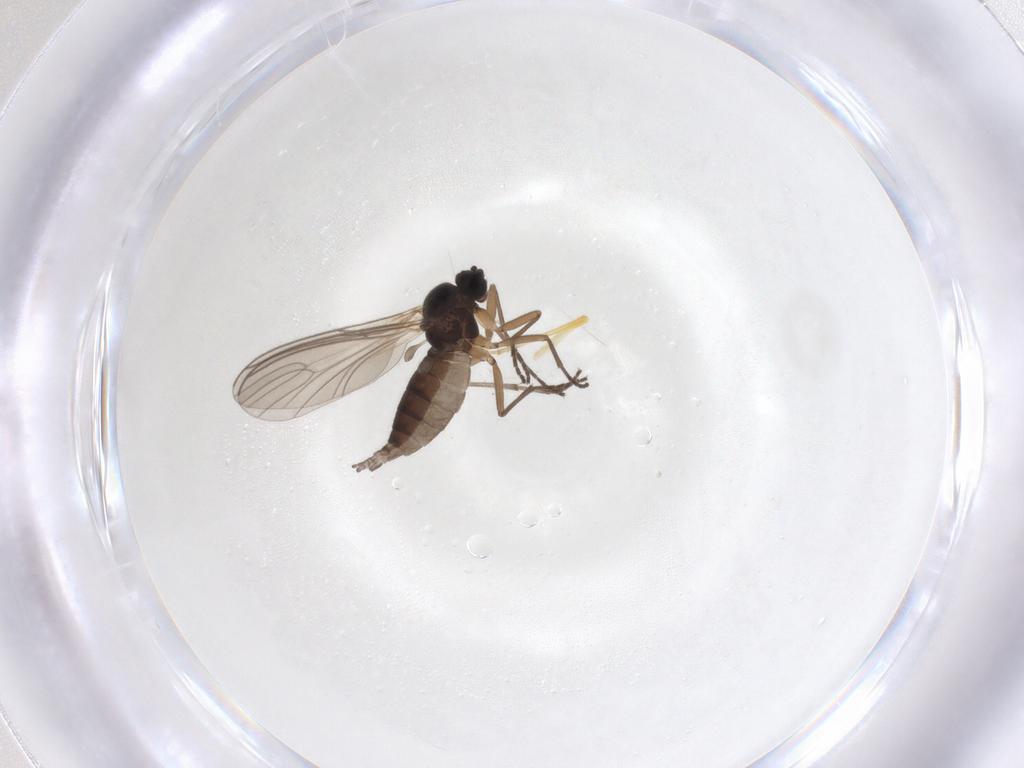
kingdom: Animalia
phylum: Arthropoda
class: Insecta
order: Diptera
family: Sciaridae
